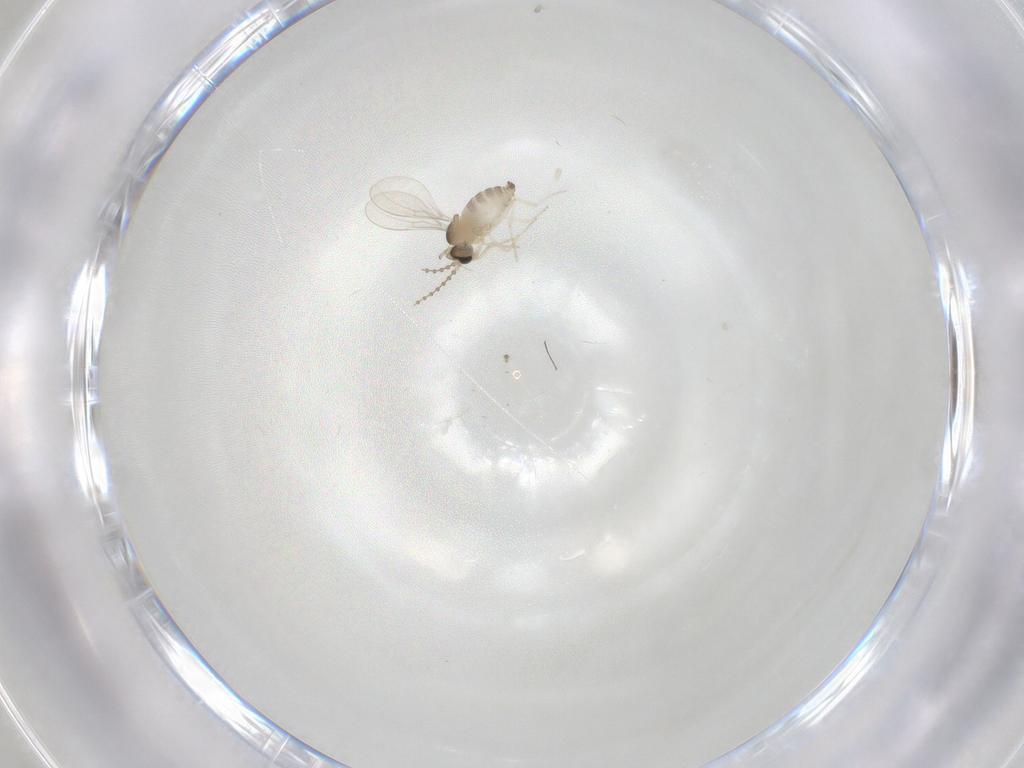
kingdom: Animalia
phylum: Arthropoda
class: Insecta
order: Diptera
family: Cecidomyiidae
